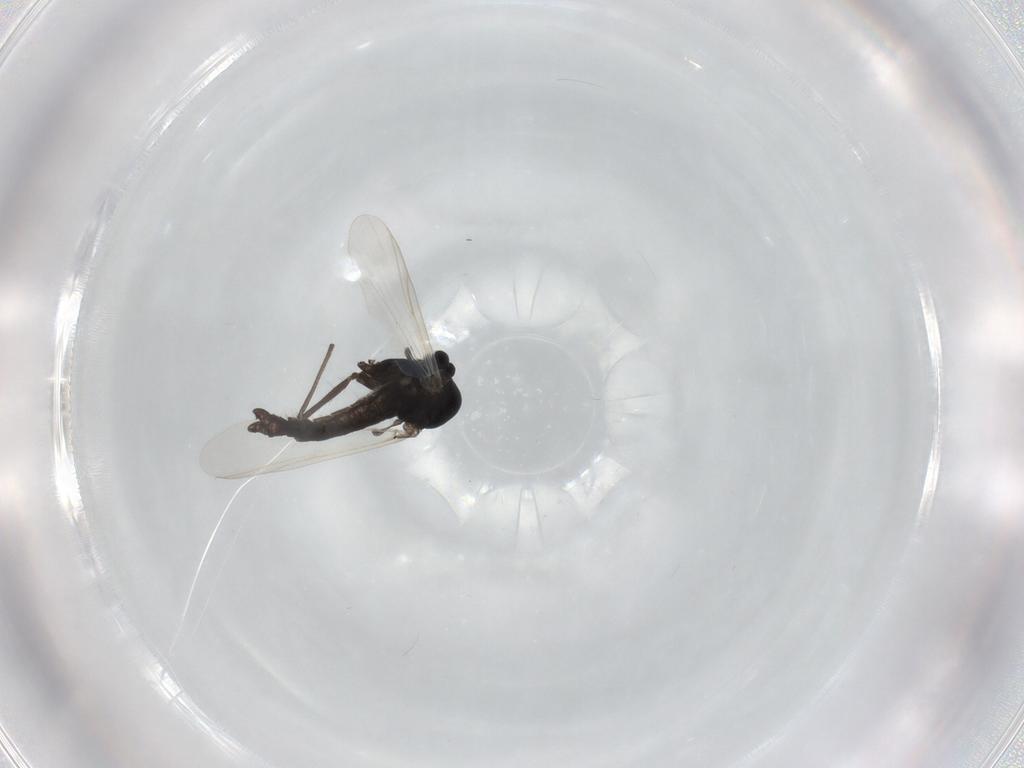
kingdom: Animalia
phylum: Arthropoda
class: Insecta
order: Diptera
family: Chironomidae
